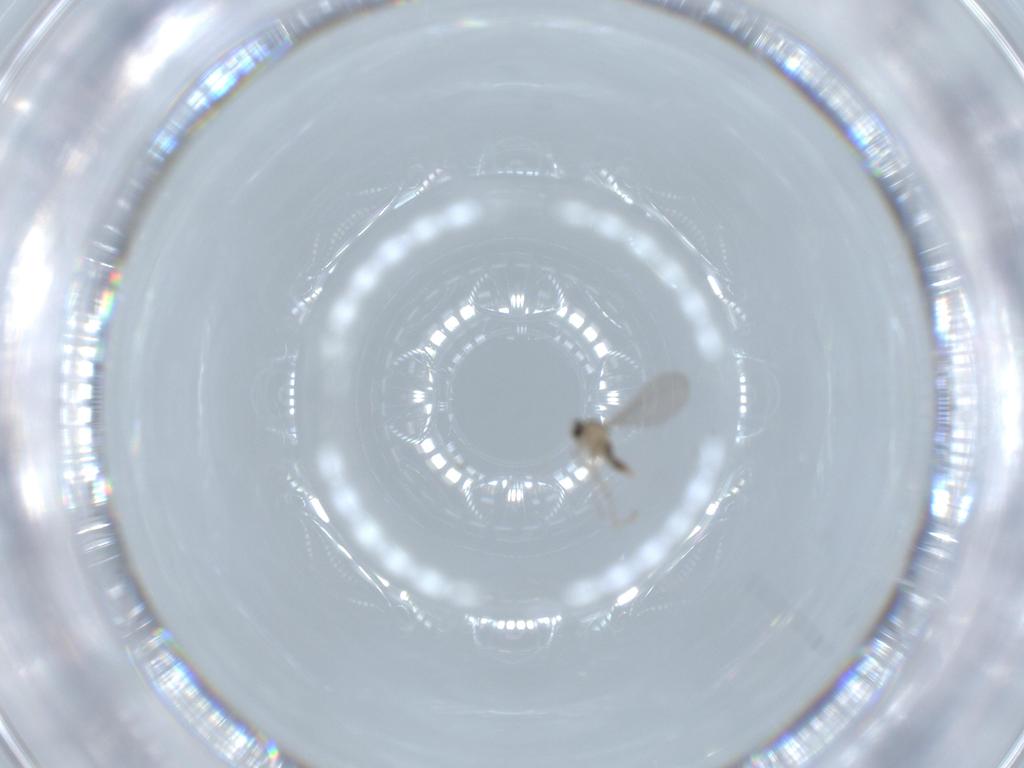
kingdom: Animalia
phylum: Arthropoda
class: Insecta
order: Diptera
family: Cecidomyiidae
